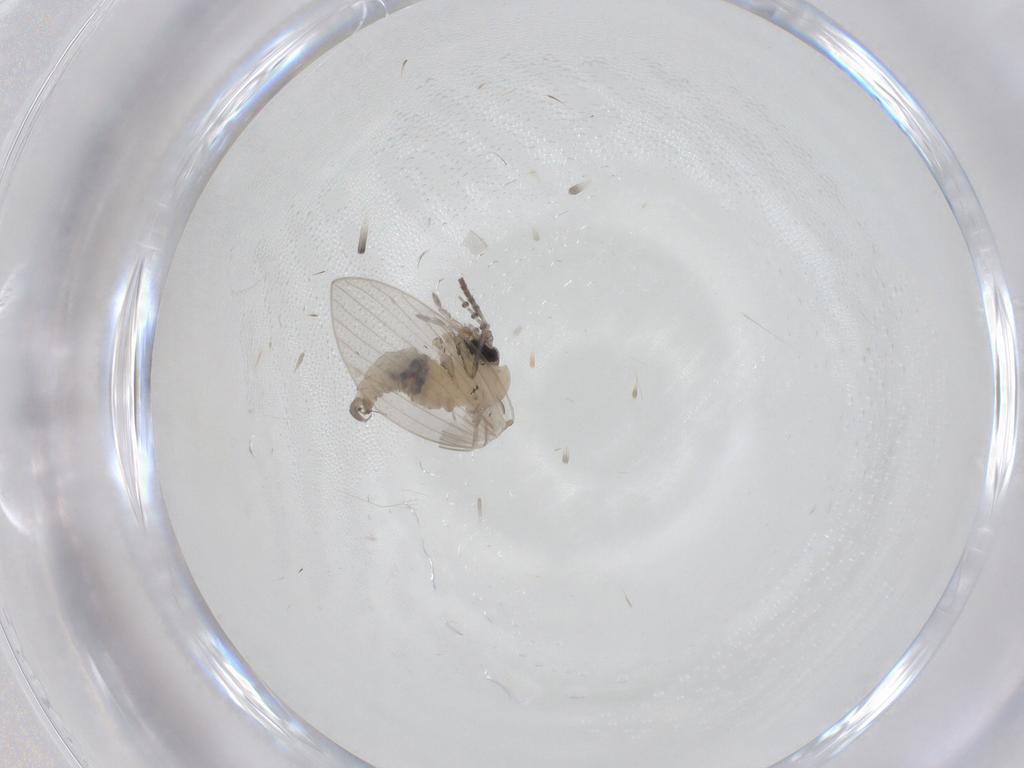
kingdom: Animalia
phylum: Arthropoda
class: Insecta
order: Diptera
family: Psychodidae
